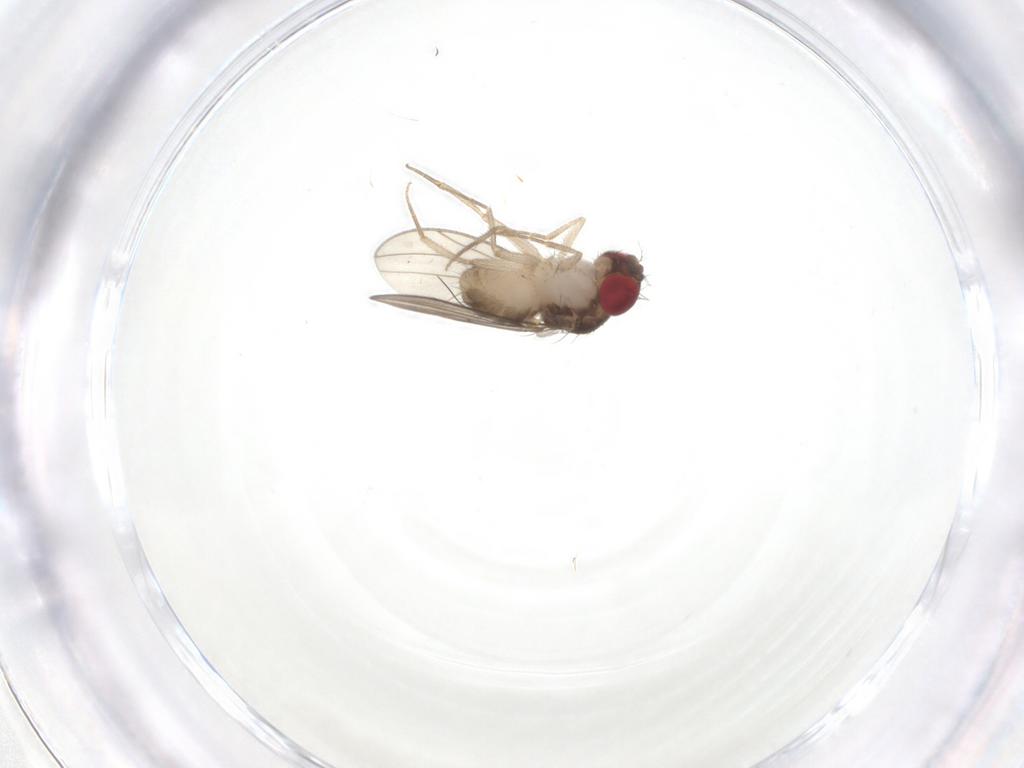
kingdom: Animalia
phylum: Arthropoda
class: Insecta
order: Diptera
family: Drosophilidae
